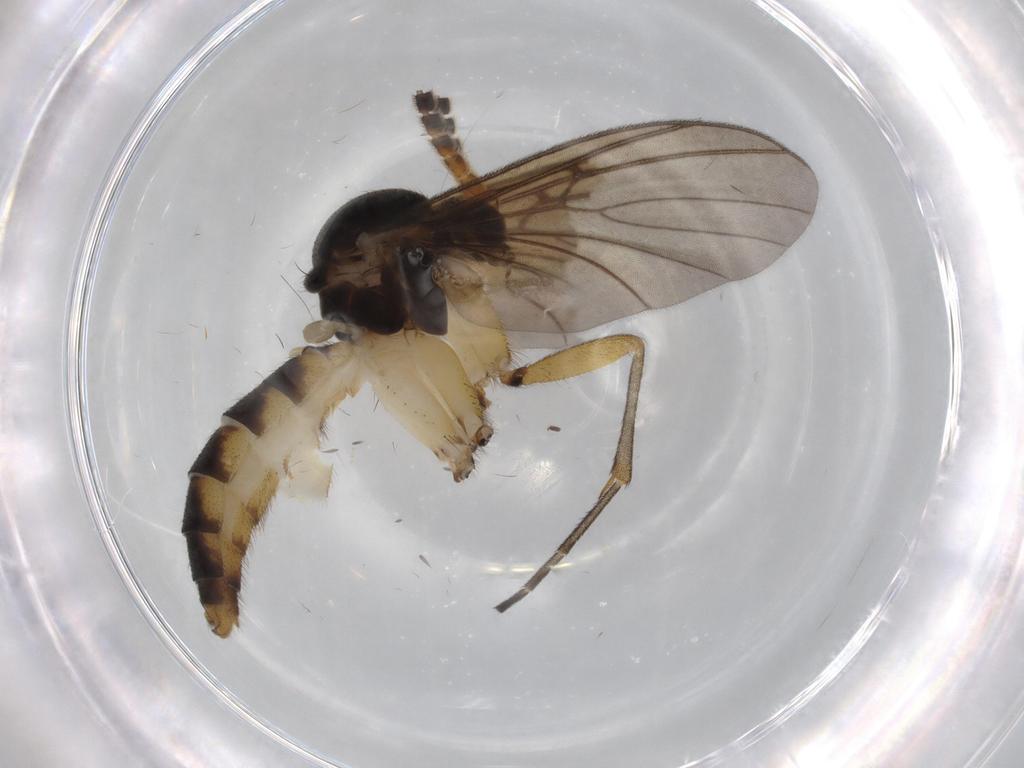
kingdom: Animalia
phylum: Arthropoda
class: Insecta
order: Diptera
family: Mycetophilidae
